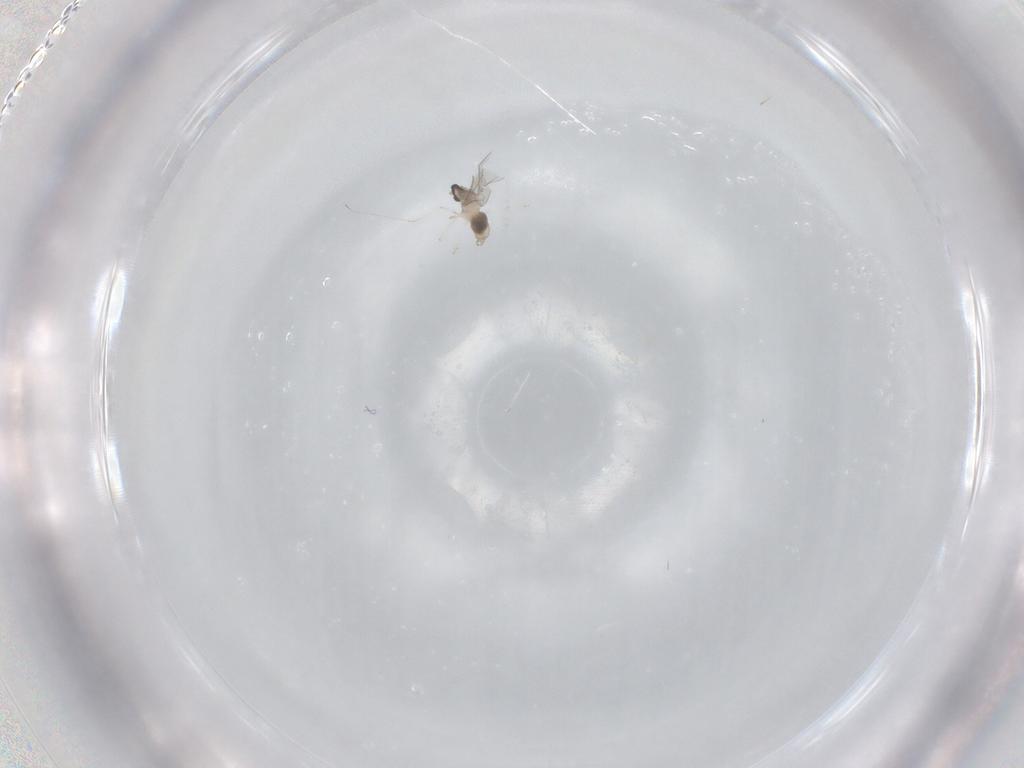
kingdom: Animalia
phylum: Arthropoda
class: Insecta
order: Diptera
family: Cecidomyiidae
